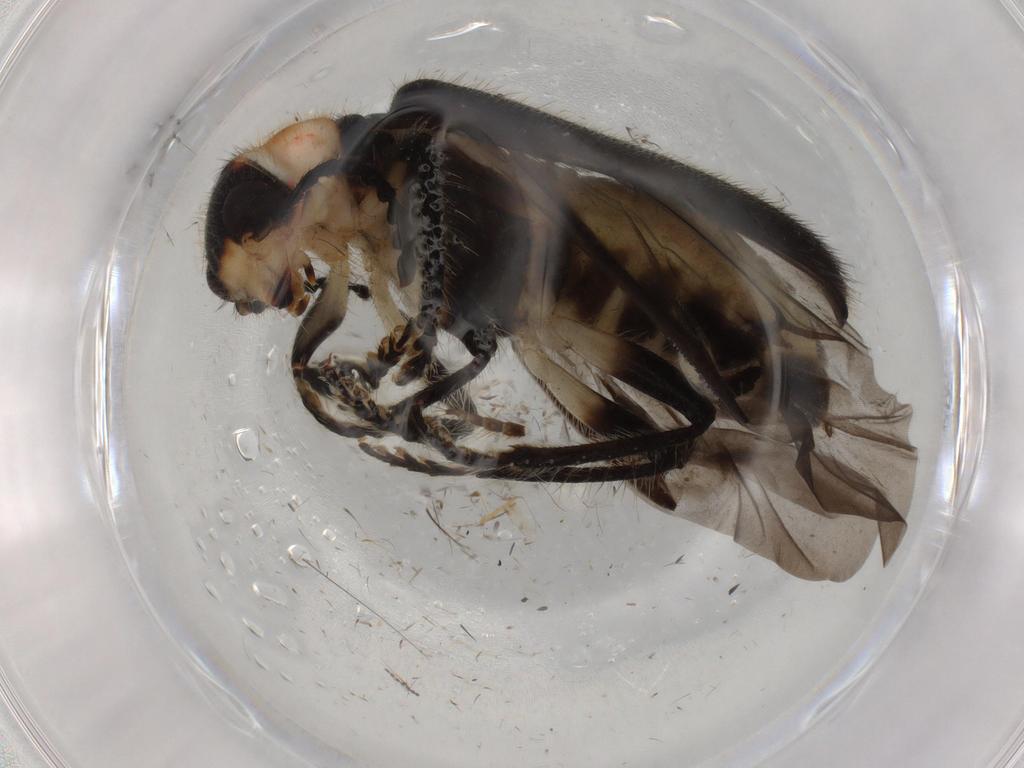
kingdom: Animalia
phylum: Arthropoda
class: Insecta
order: Coleoptera
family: Coccinellidae
